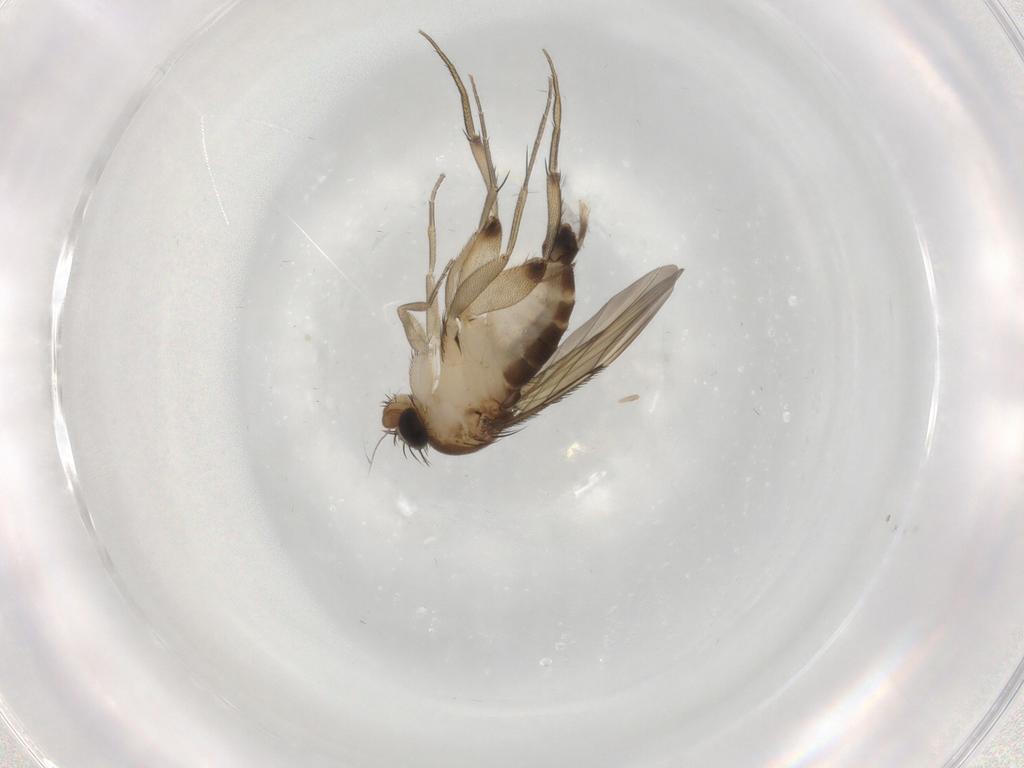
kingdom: Animalia
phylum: Arthropoda
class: Insecta
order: Diptera
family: Phoridae
